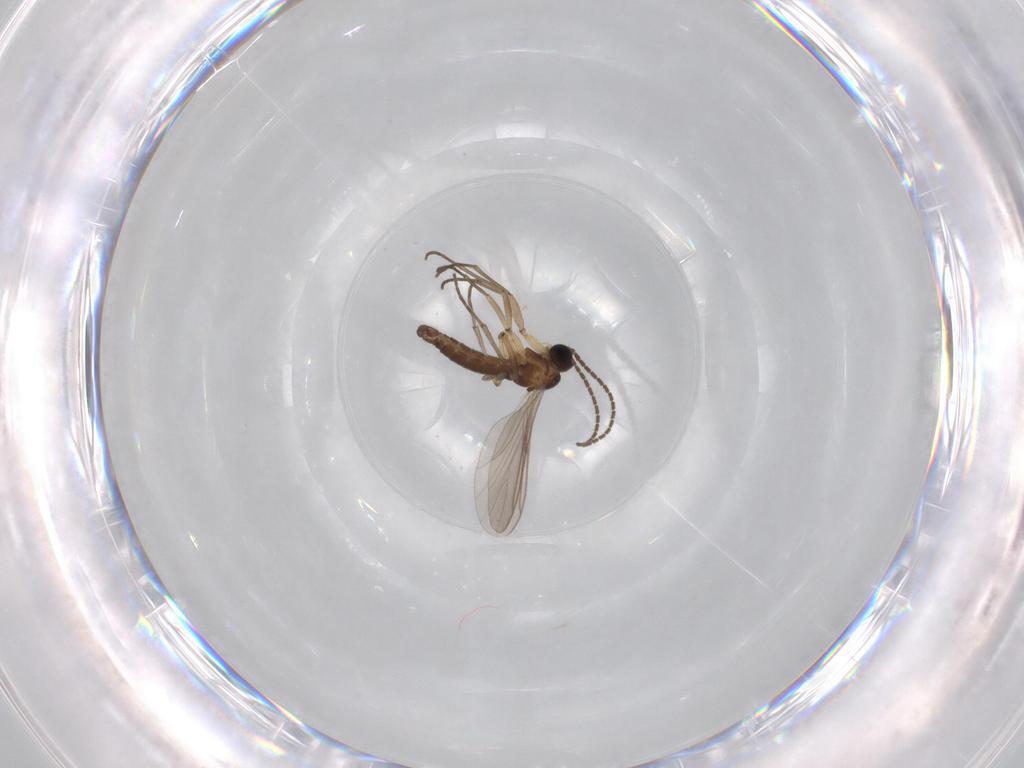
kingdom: Animalia
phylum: Arthropoda
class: Insecta
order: Diptera
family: Sciaridae
